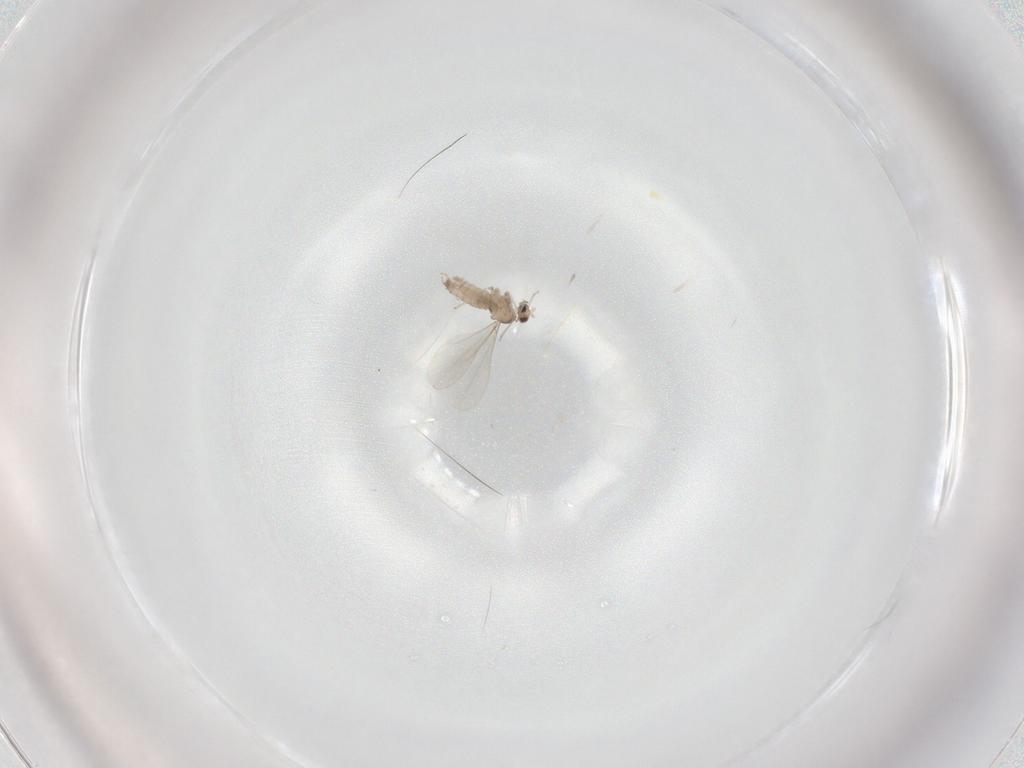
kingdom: Animalia
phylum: Arthropoda
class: Insecta
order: Diptera
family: Cecidomyiidae
